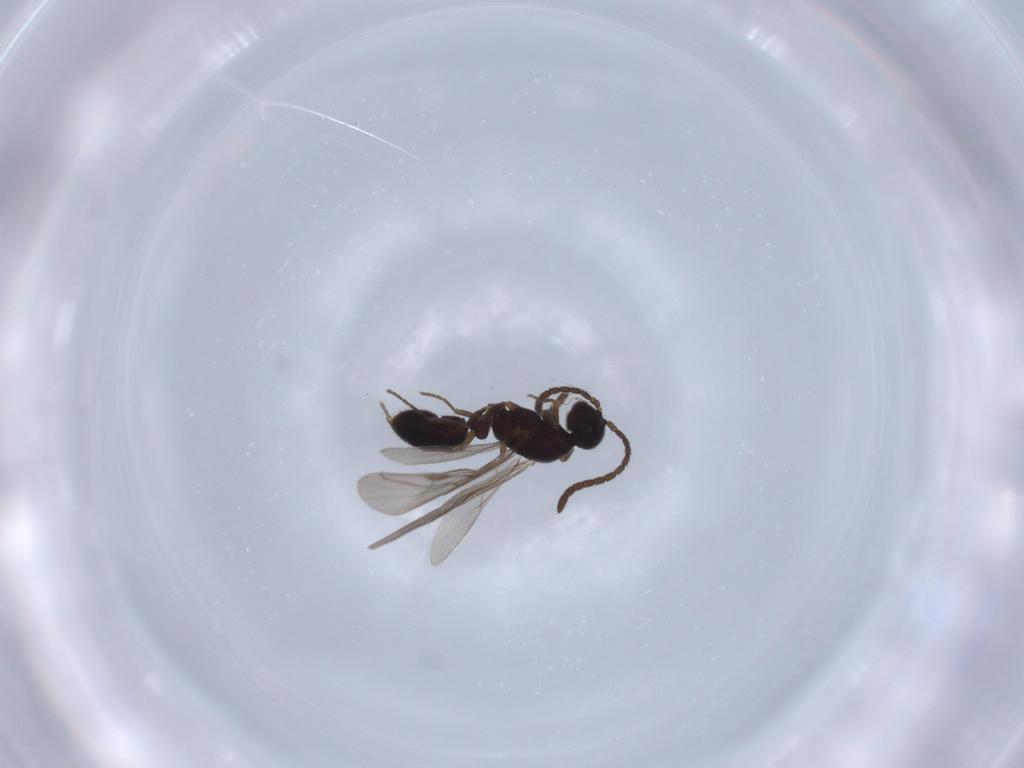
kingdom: Animalia
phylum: Arthropoda
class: Insecta
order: Hymenoptera
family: Formicidae
